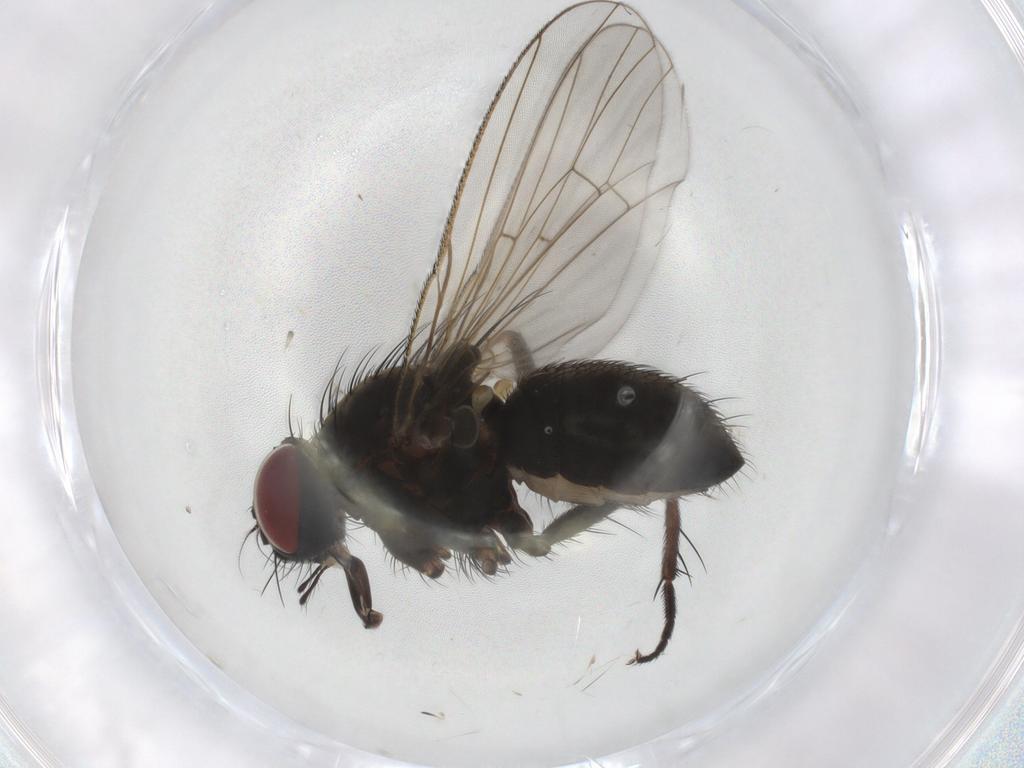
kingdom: Animalia
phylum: Arthropoda
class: Insecta
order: Diptera
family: Muscidae
